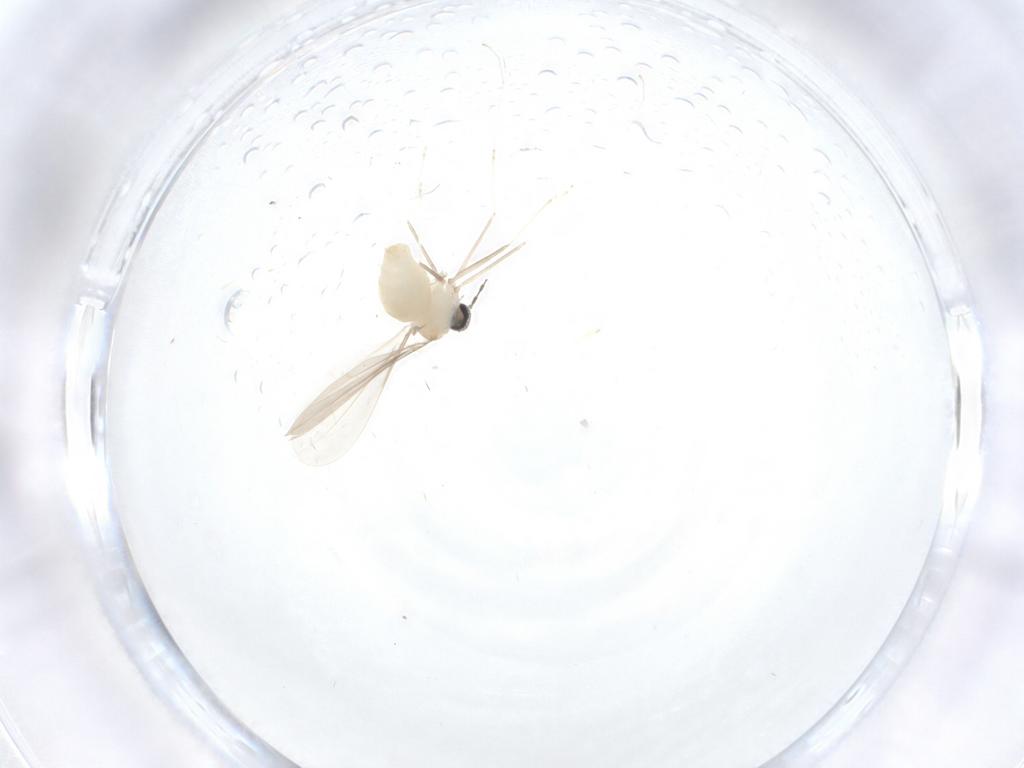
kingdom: Animalia
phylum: Arthropoda
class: Insecta
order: Diptera
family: Cecidomyiidae
